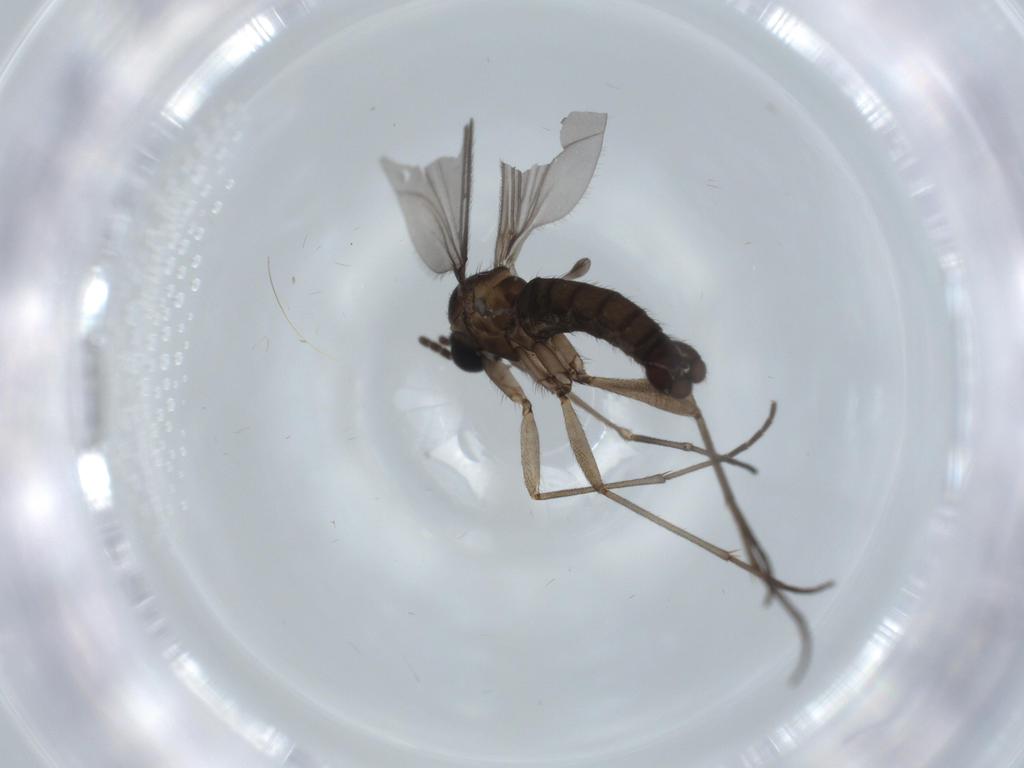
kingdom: Animalia
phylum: Arthropoda
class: Insecta
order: Diptera
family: Sciaridae
